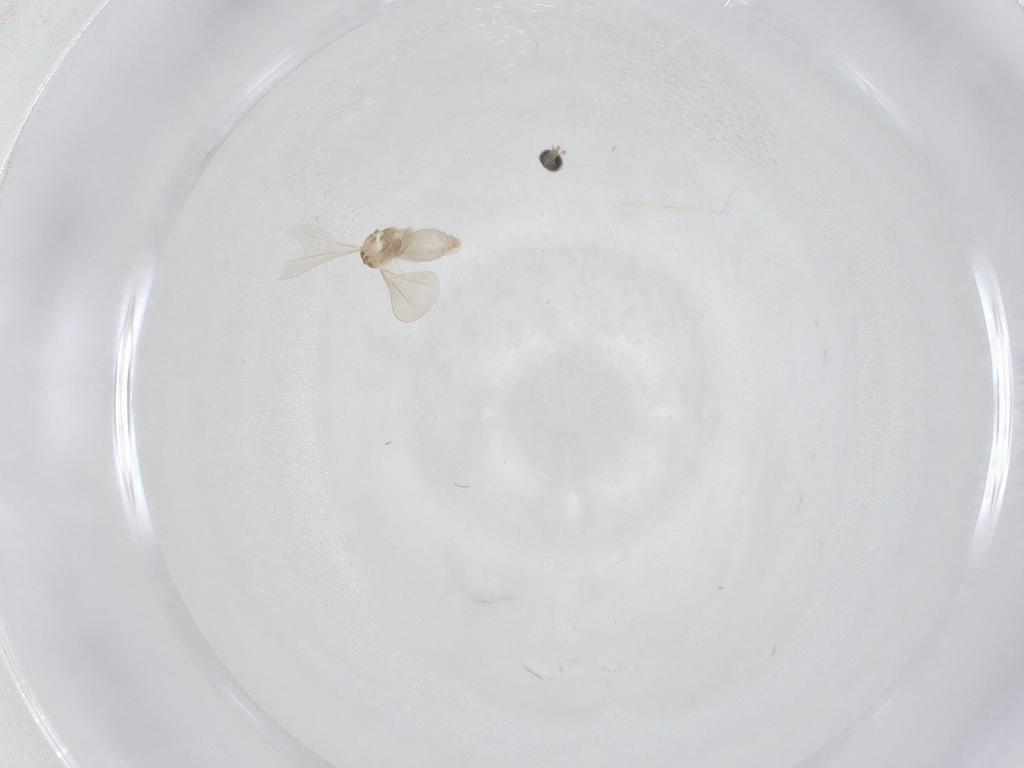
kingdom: Animalia
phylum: Arthropoda
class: Insecta
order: Diptera
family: Cecidomyiidae
